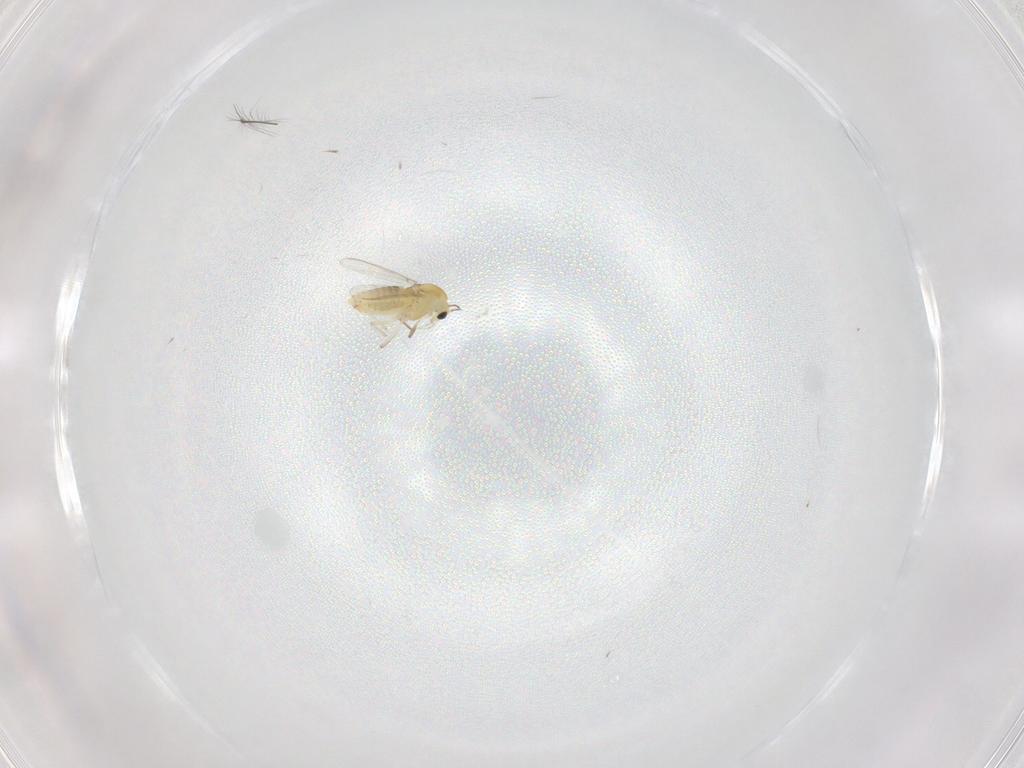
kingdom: Animalia
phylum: Arthropoda
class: Insecta
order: Diptera
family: Chironomidae
